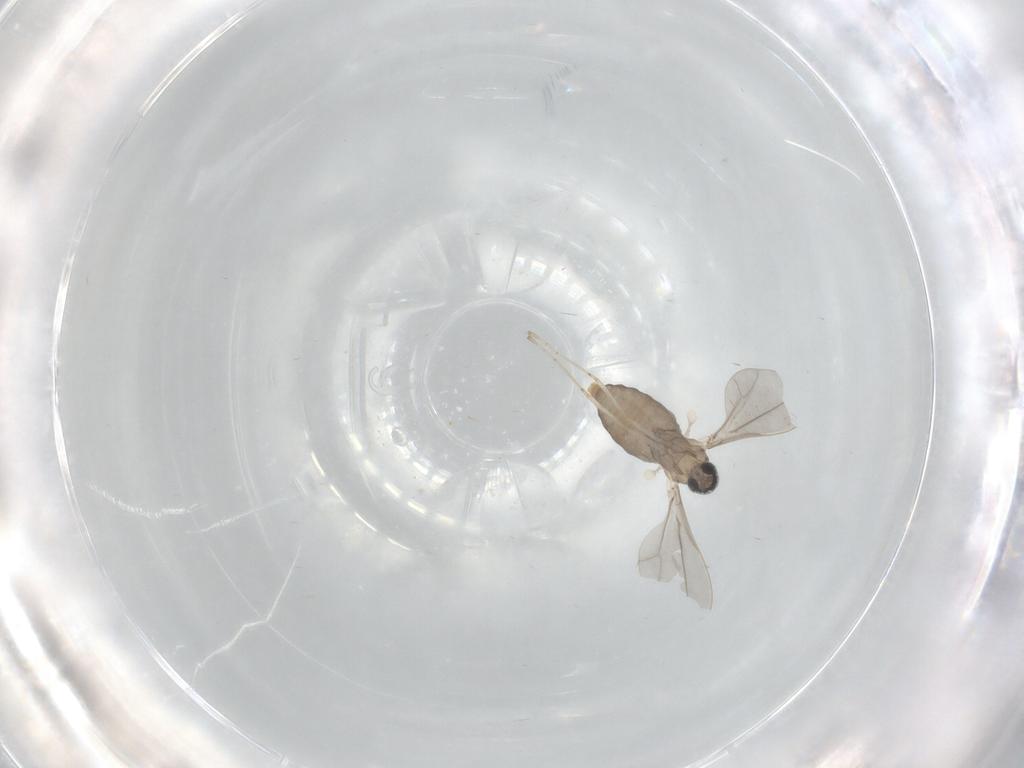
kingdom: Animalia
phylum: Arthropoda
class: Insecta
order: Diptera
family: Cecidomyiidae
